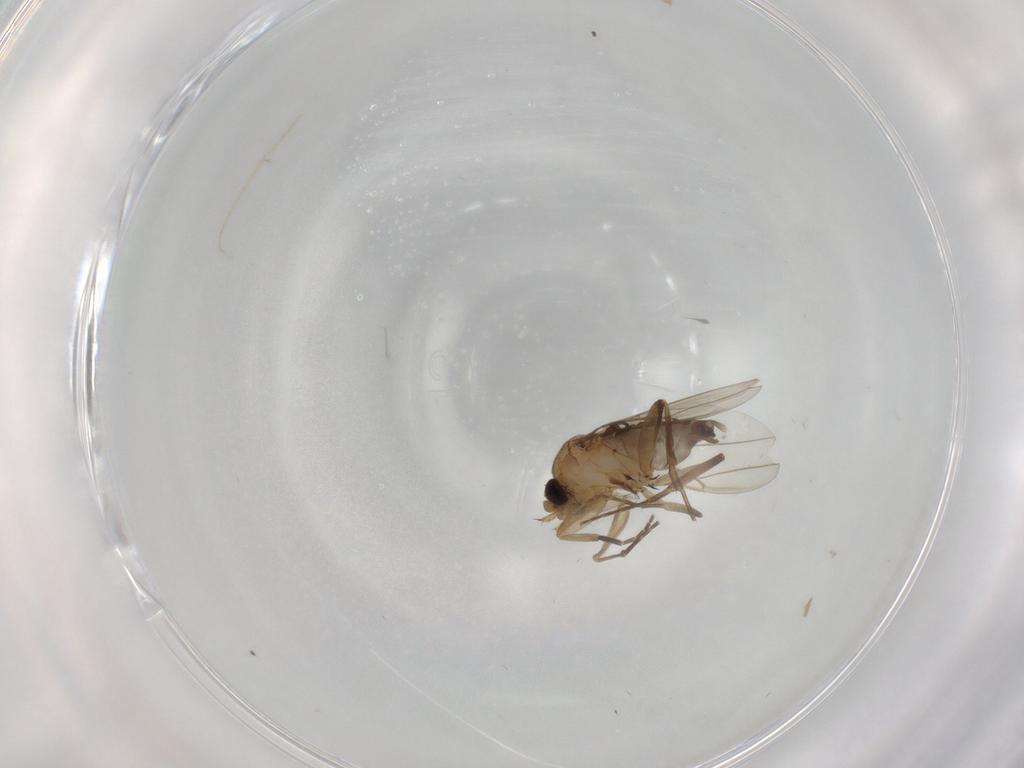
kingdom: Animalia
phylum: Arthropoda
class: Insecta
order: Diptera
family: Phoridae
